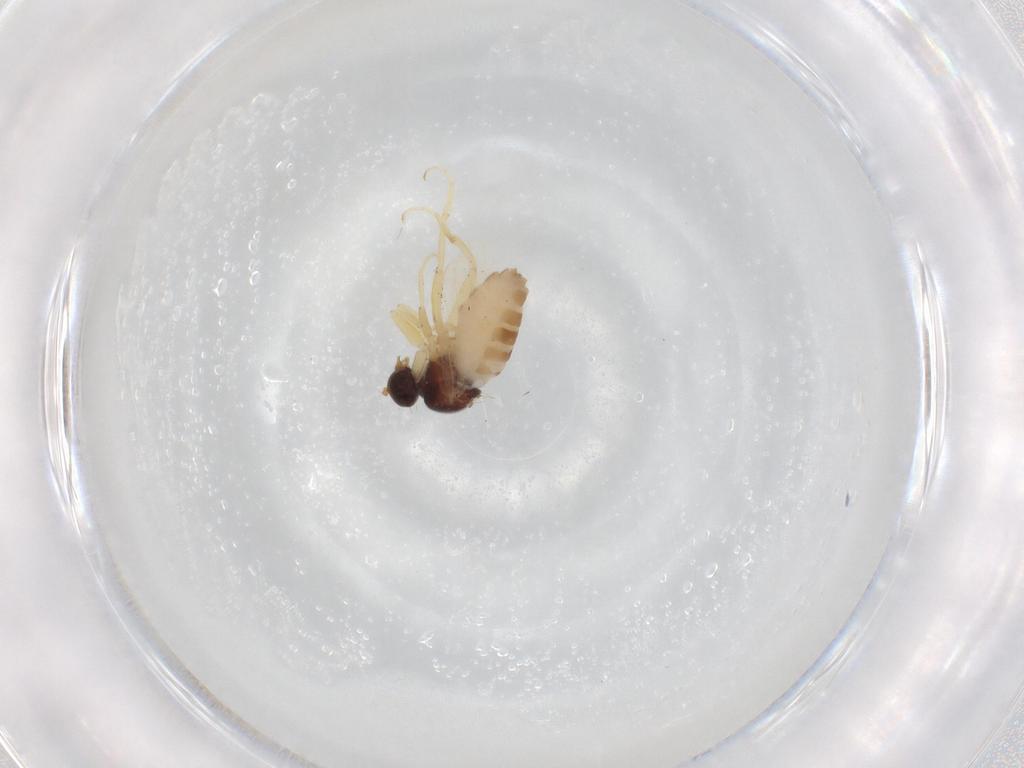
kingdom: Animalia
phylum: Arthropoda
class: Insecta
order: Diptera
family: Hybotidae
